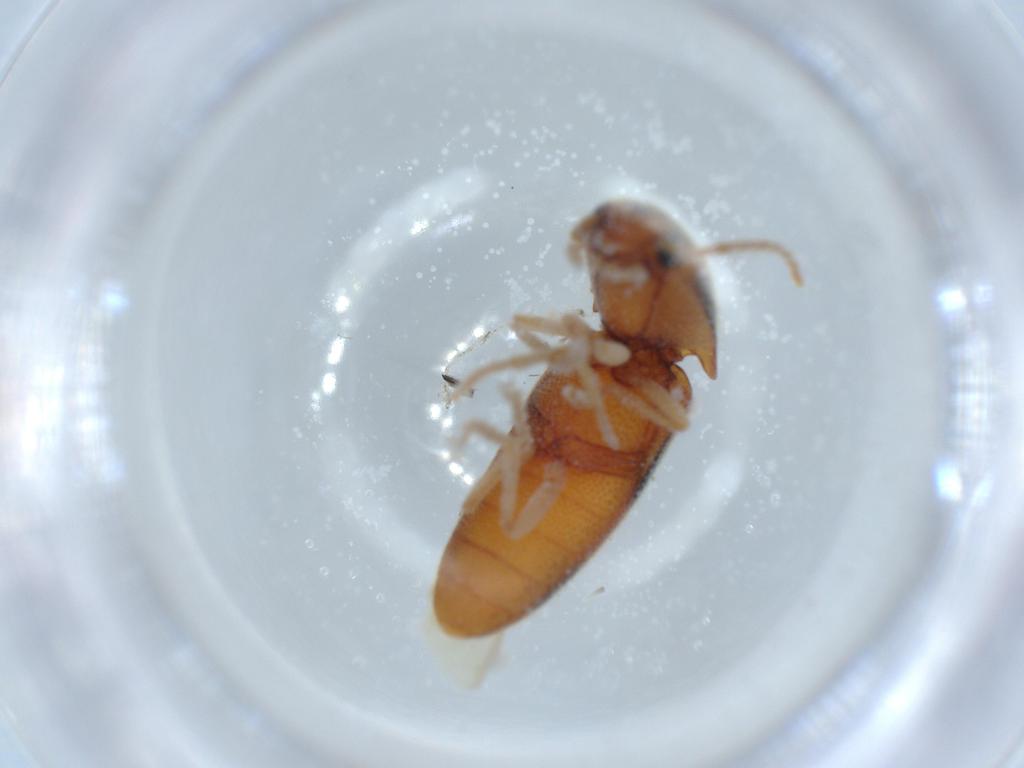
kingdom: Animalia
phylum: Arthropoda
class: Insecta
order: Coleoptera
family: Elateridae
